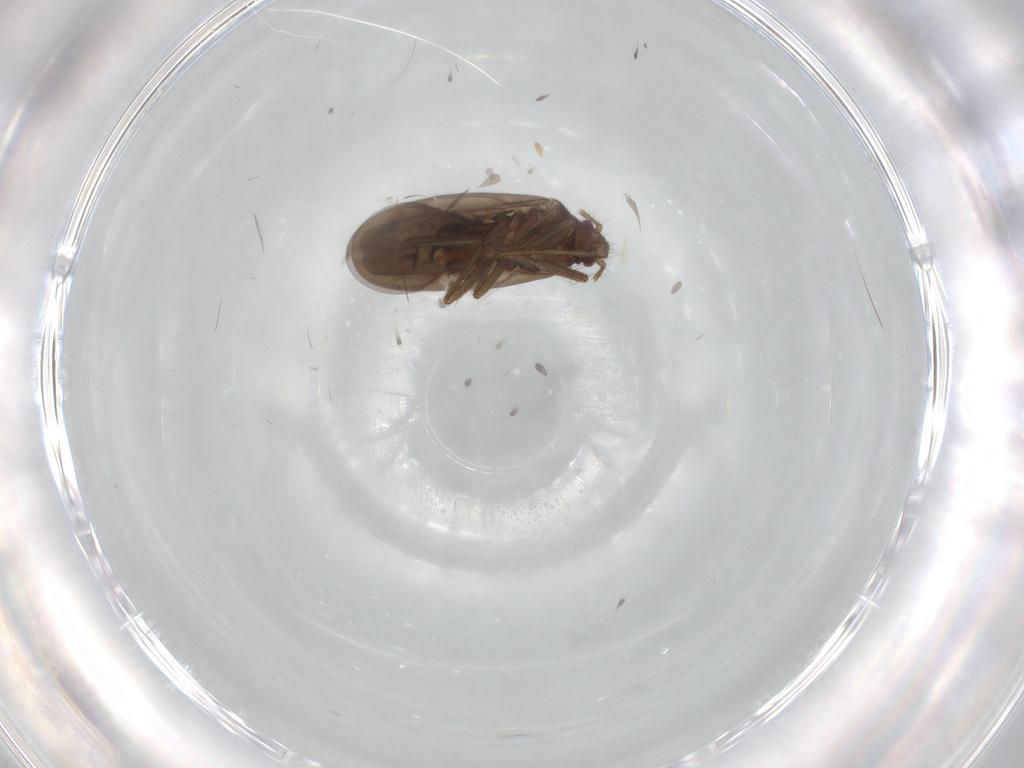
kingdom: Animalia
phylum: Arthropoda
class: Insecta
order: Hemiptera
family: Ceratocombidae
